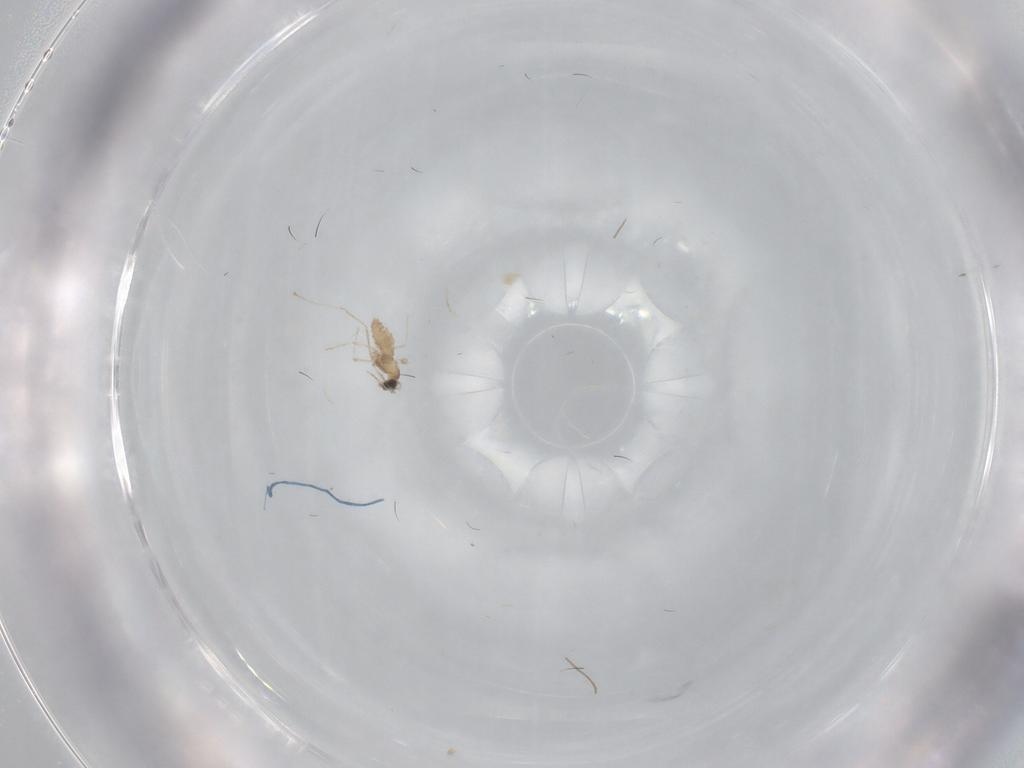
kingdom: Animalia
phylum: Arthropoda
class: Insecta
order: Diptera
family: Cecidomyiidae
